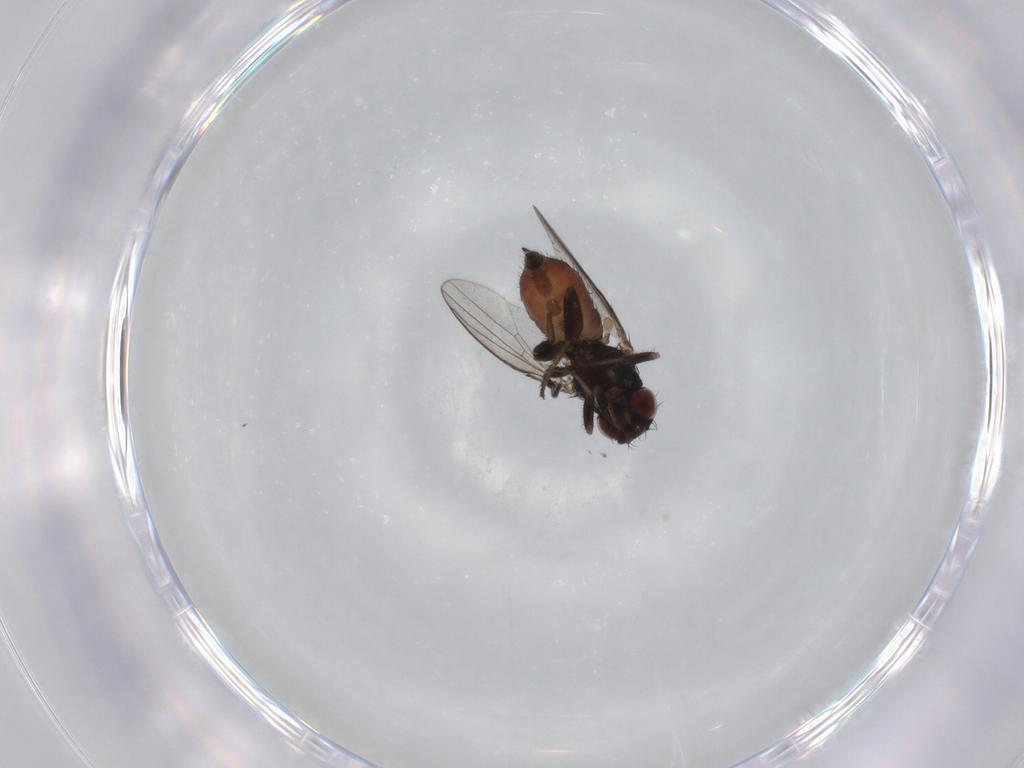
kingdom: Animalia
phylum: Arthropoda
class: Insecta
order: Diptera
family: Milichiidae
